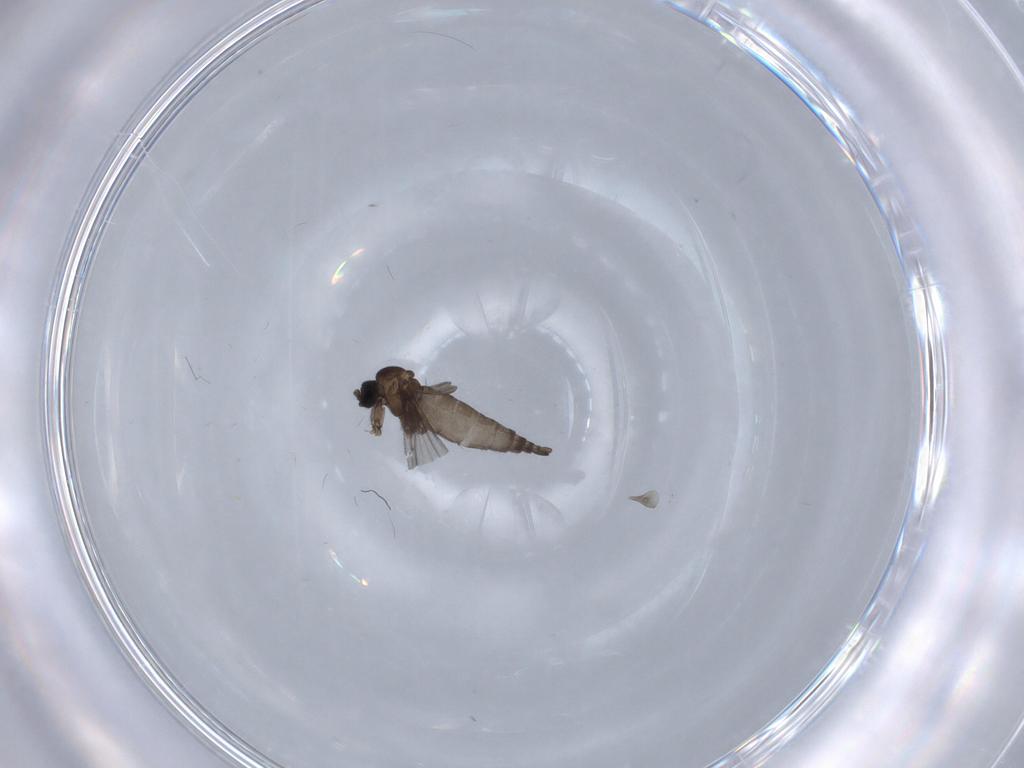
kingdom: Animalia
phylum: Arthropoda
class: Insecta
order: Diptera
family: Sciaridae
